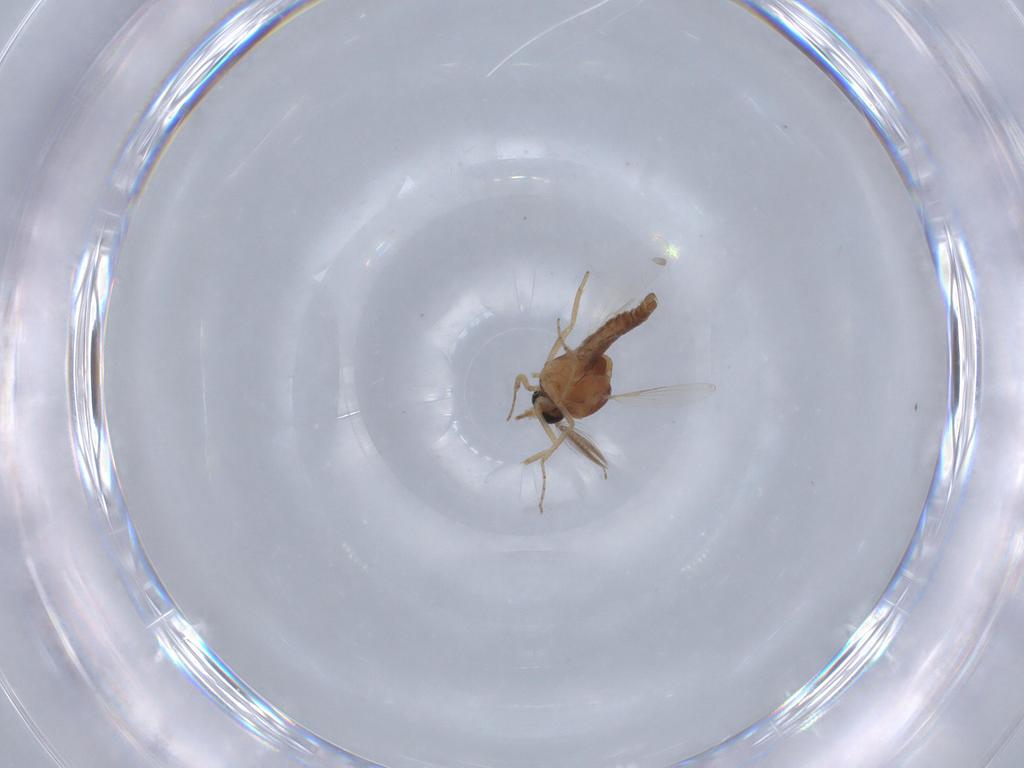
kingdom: Animalia
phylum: Arthropoda
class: Insecta
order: Diptera
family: Ceratopogonidae
